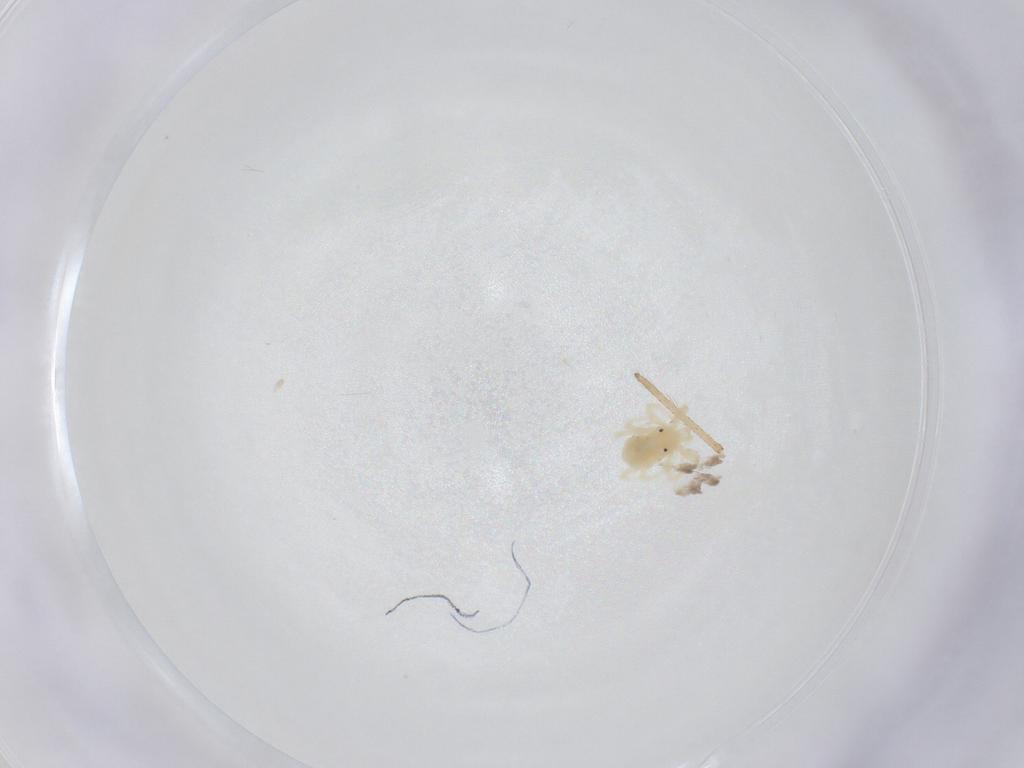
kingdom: Animalia
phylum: Arthropoda
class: Arachnida
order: Trombidiformes
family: Anystidae
